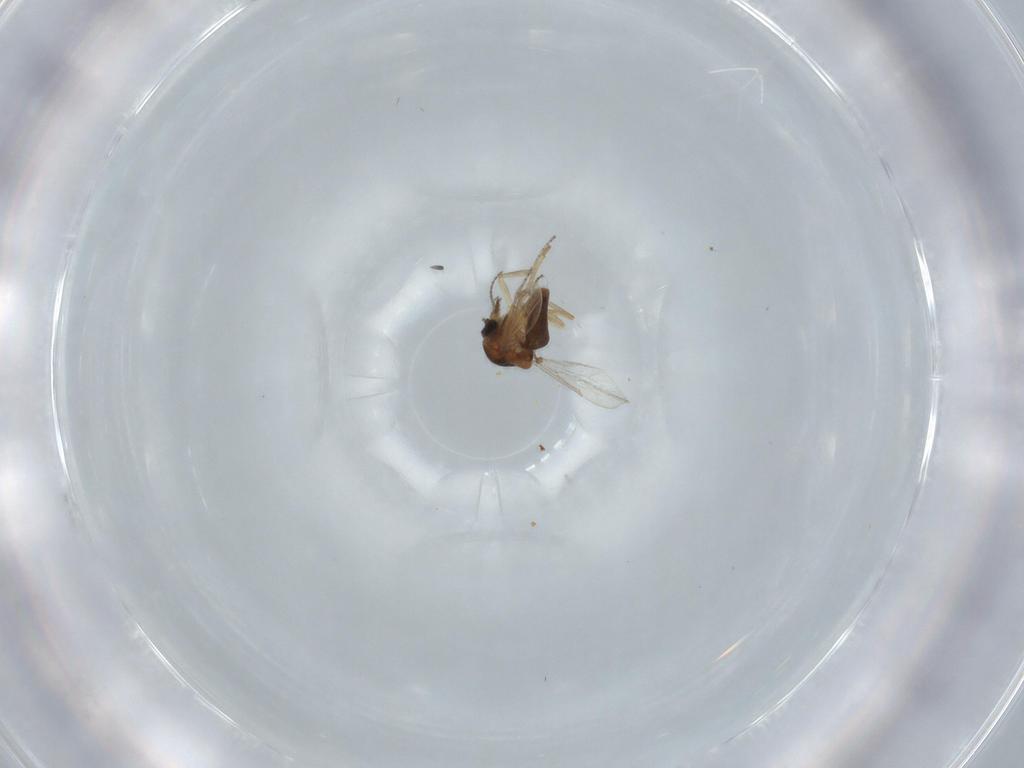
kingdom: Animalia
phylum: Arthropoda
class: Insecta
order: Diptera
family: Ceratopogonidae
